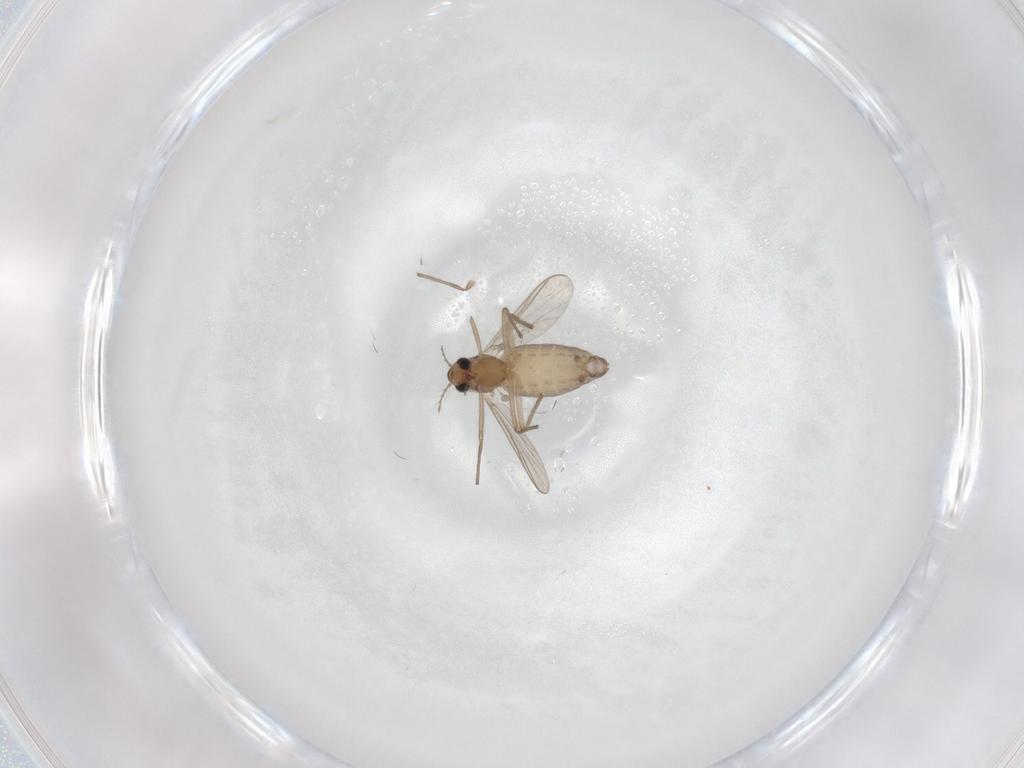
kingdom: Animalia
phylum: Arthropoda
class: Insecta
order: Diptera
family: Chironomidae
